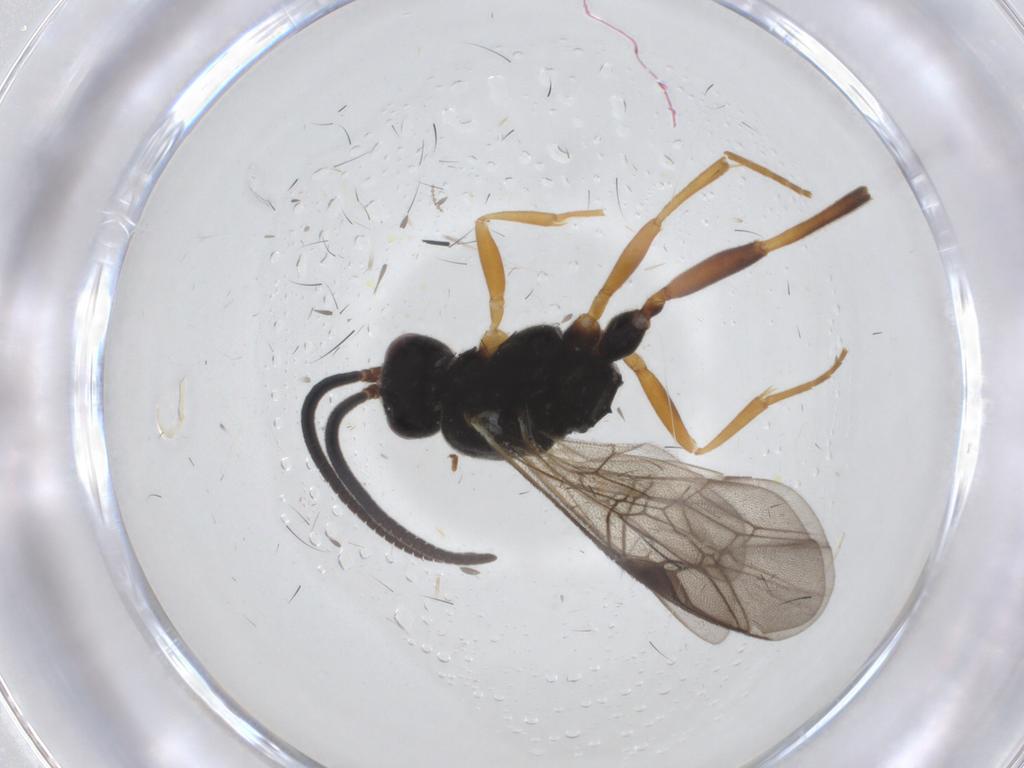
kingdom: Animalia
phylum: Arthropoda
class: Insecta
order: Hymenoptera
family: Ichneumonidae
